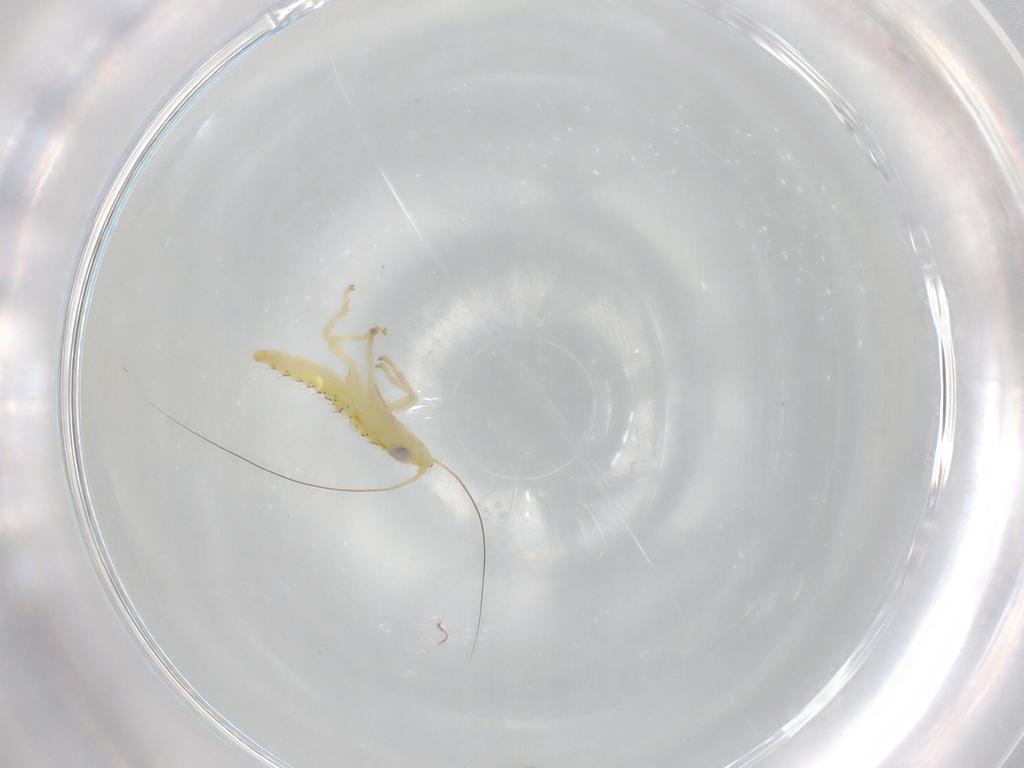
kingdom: Animalia
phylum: Arthropoda
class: Insecta
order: Hemiptera
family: Cicadellidae
